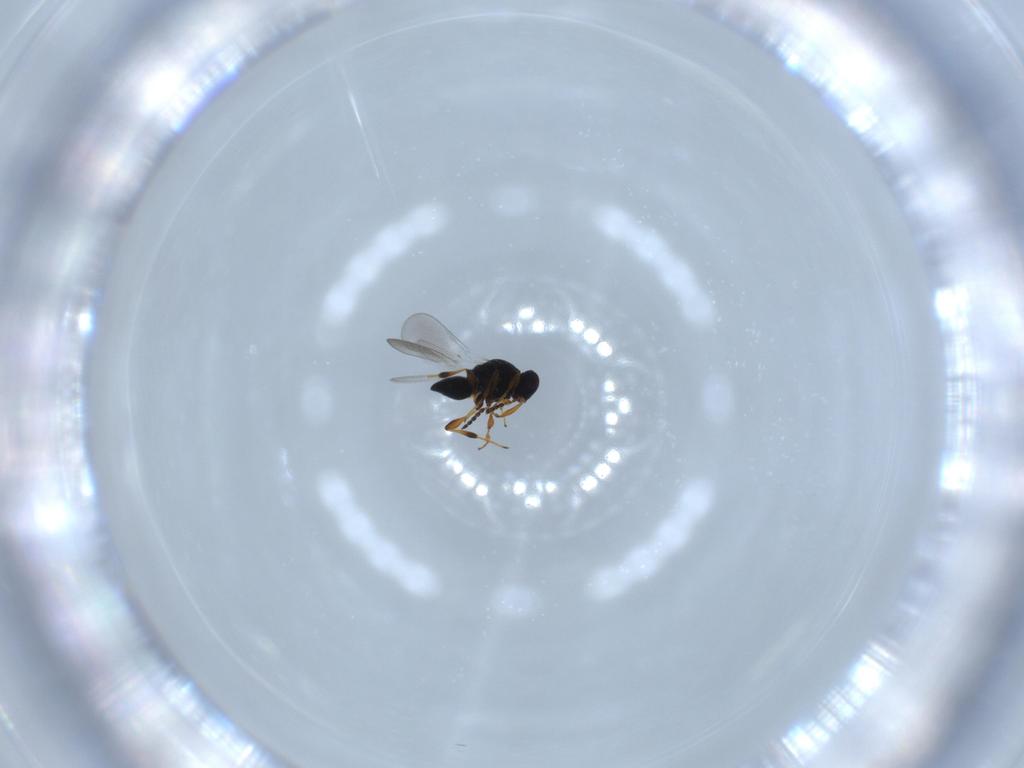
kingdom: Animalia
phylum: Arthropoda
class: Insecta
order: Hymenoptera
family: Platygastridae
